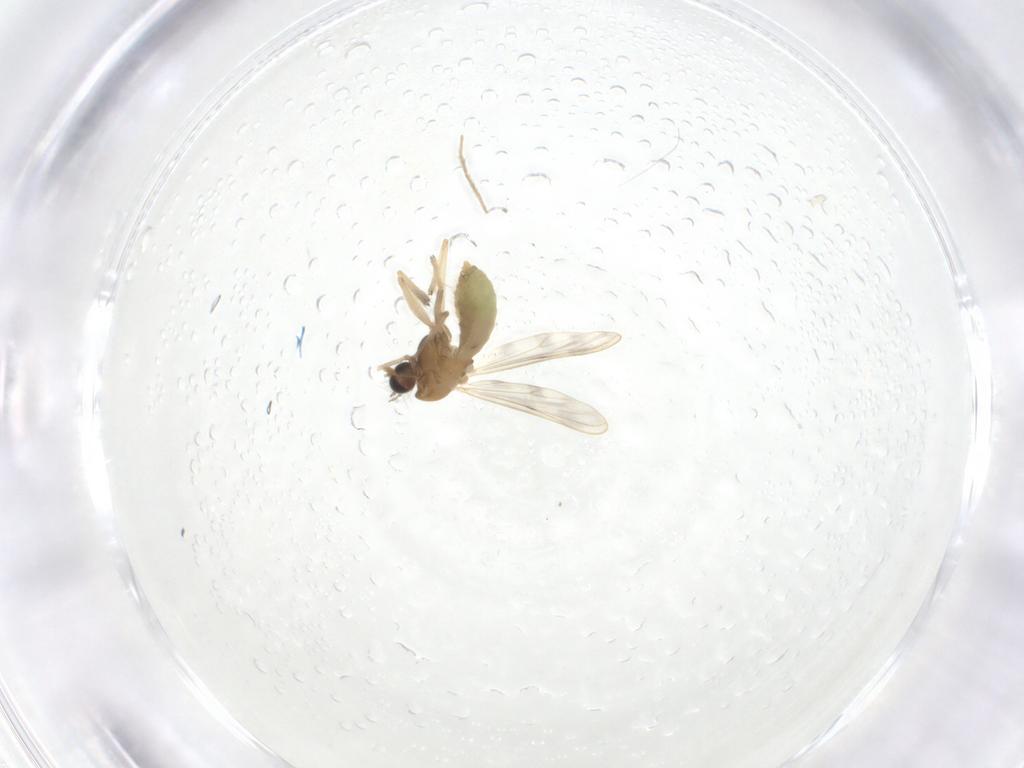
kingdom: Animalia
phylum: Arthropoda
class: Insecta
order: Diptera
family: Chironomidae
